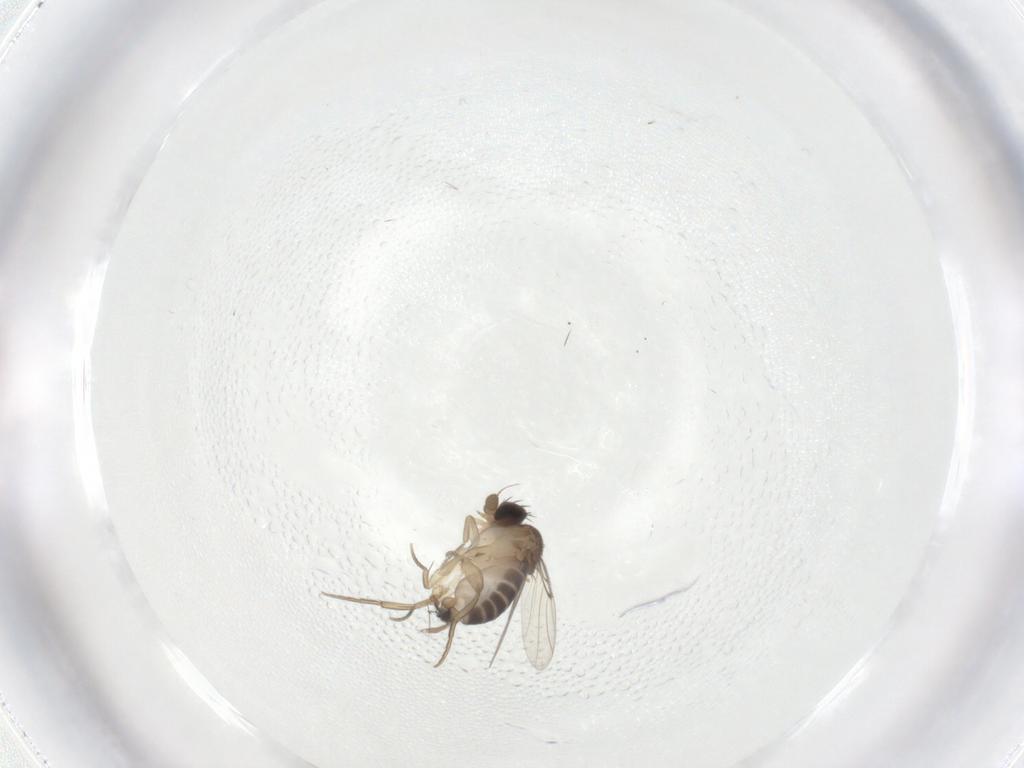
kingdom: Animalia
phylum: Arthropoda
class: Insecta
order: Diptera
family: Phoridae
